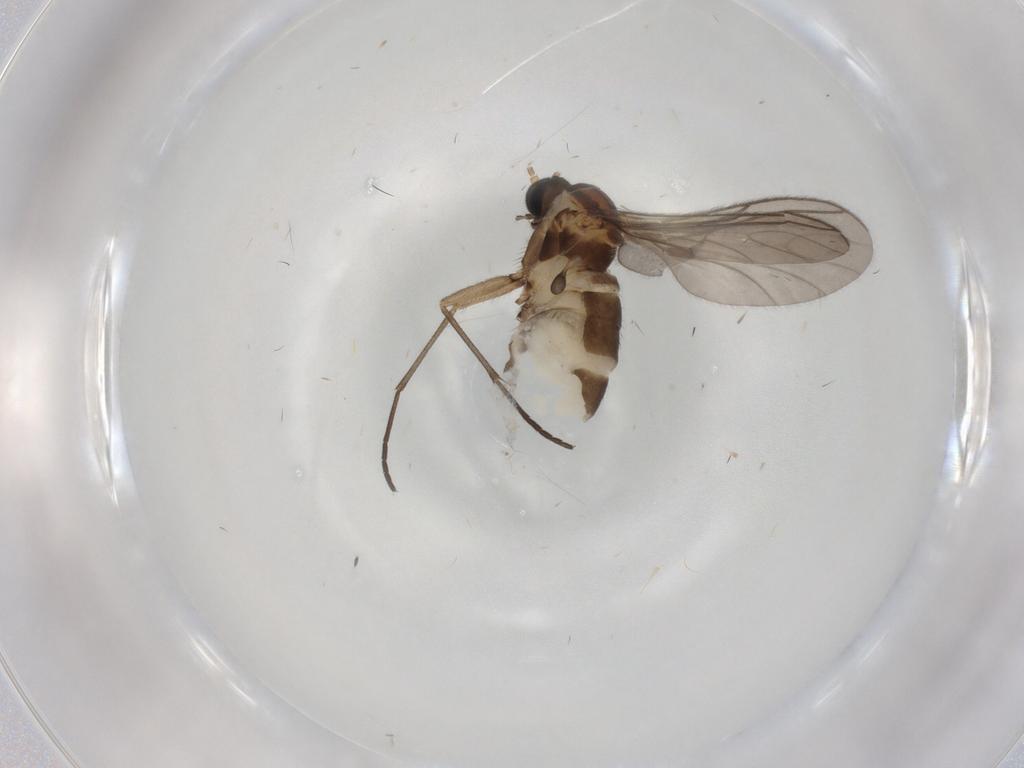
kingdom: Animalia
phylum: Arthropoda
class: Insecta
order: Diptera
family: Sciaridae
